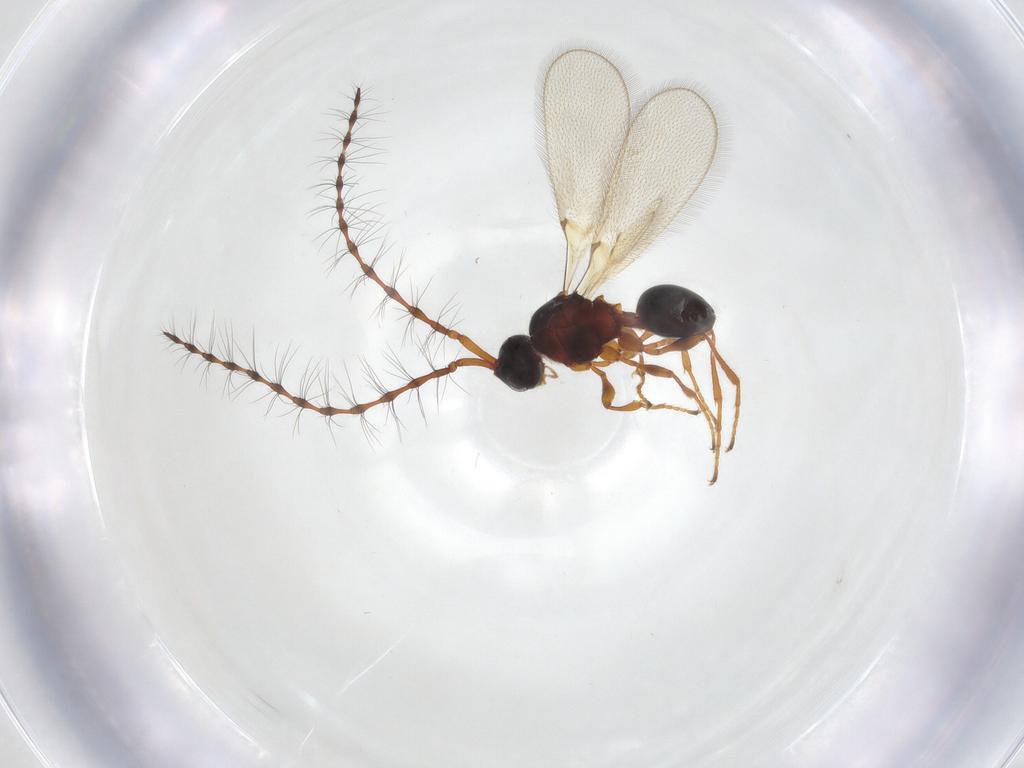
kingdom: Animalia
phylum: Arthropoda
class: Insecta
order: Hymenoptera
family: Diapriidae
